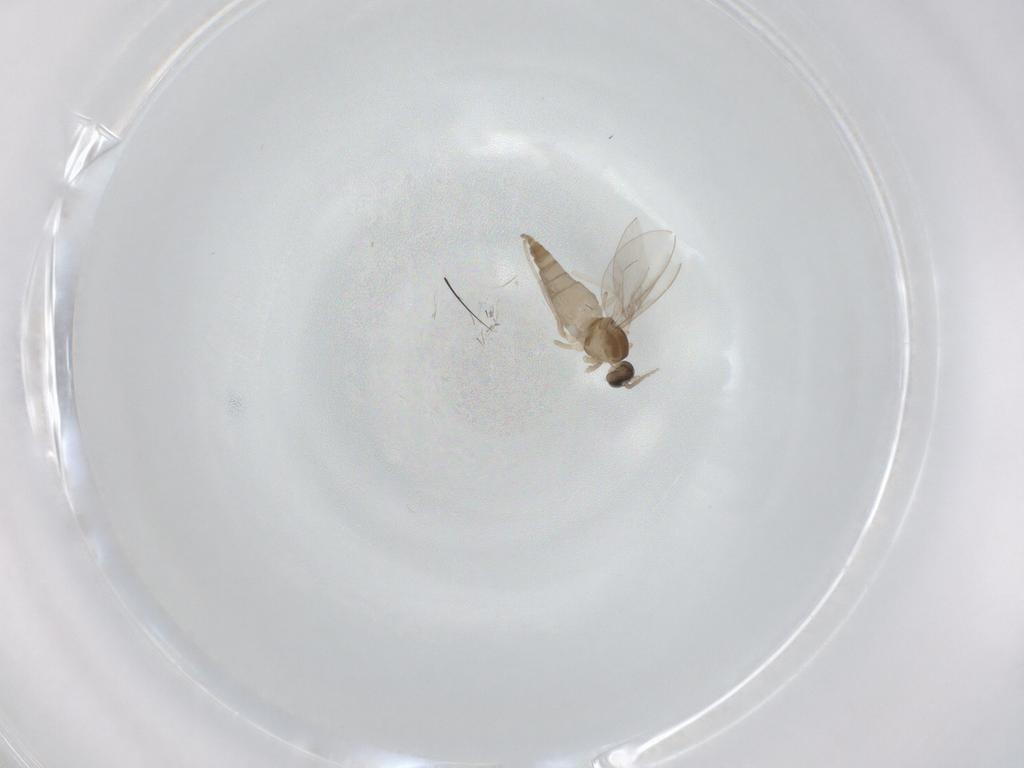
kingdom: Animalia
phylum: Arthropoda
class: Insecta
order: Diptera
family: Cecidomyiidae
